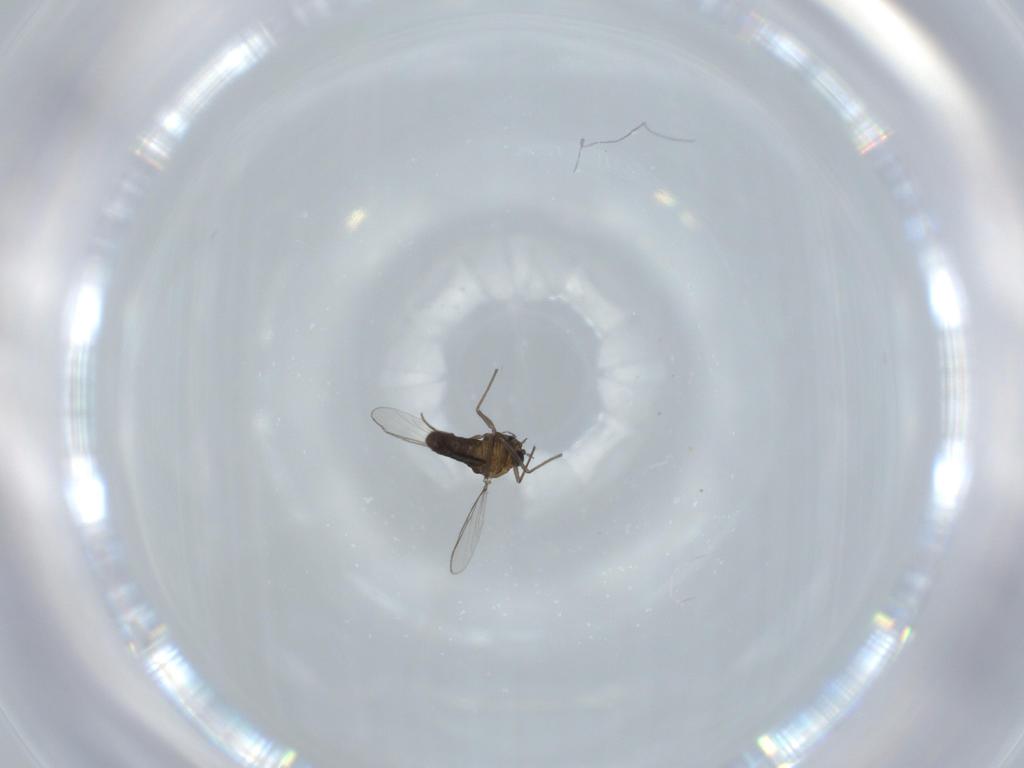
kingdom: Animalia
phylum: Arthropoda
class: Insecta
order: Diptera
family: Chironomidae
